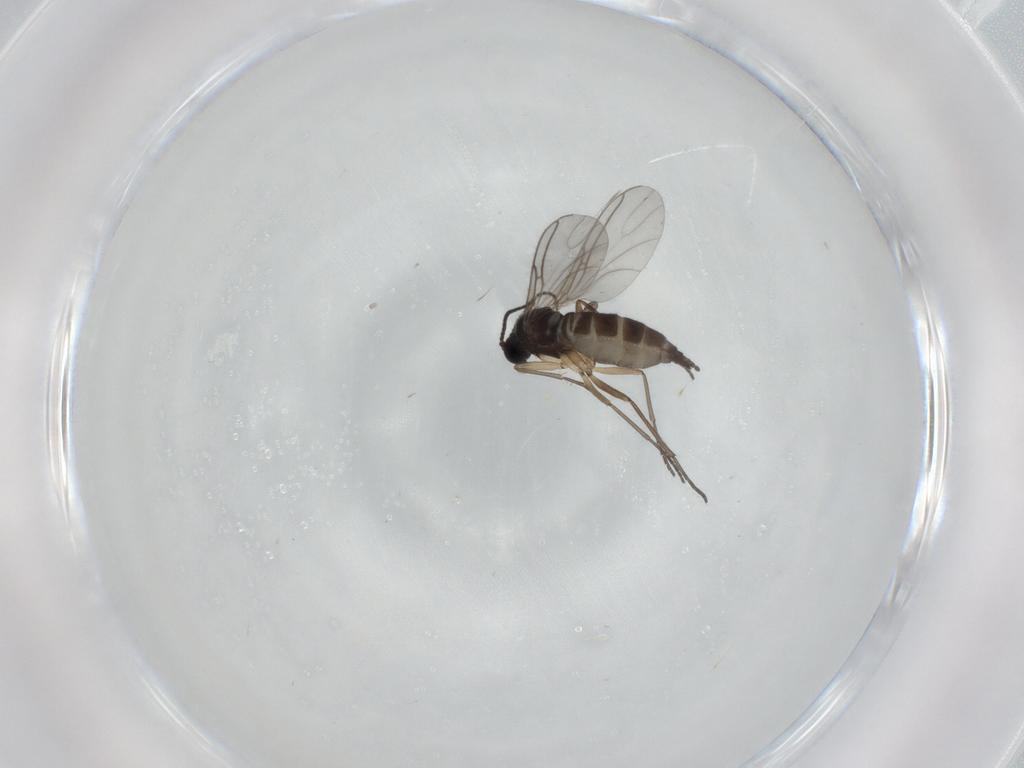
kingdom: Animalia
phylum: Arthropoda
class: Insecta
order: Diptera
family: Sciaridae
